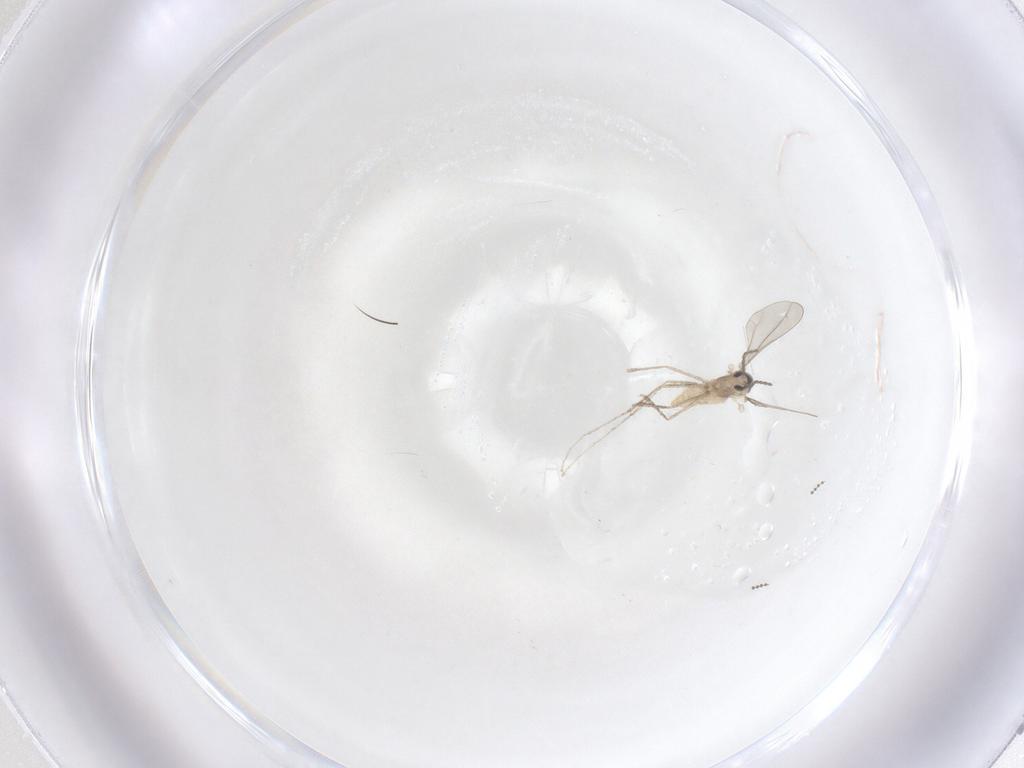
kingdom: Animalia
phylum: Arthropoda
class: Insecta
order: Diptera
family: Cecidomyiidae
